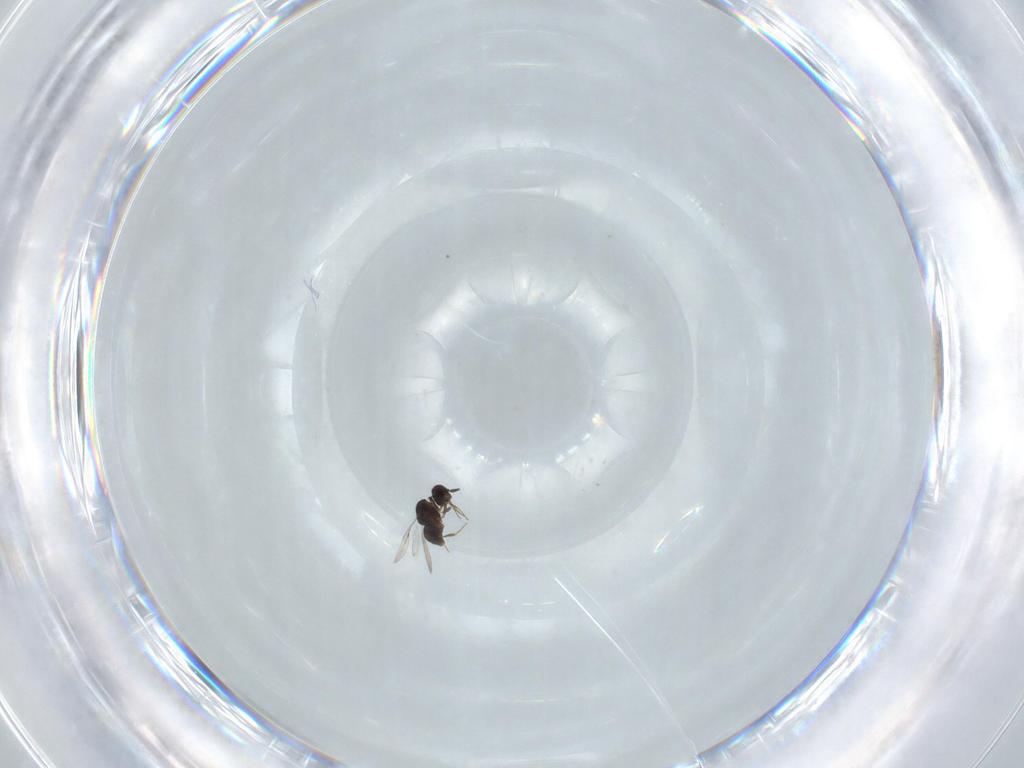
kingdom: Animalia
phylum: Arthropoda
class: Insecta
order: Hymenoptera
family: Ceraphronidae
